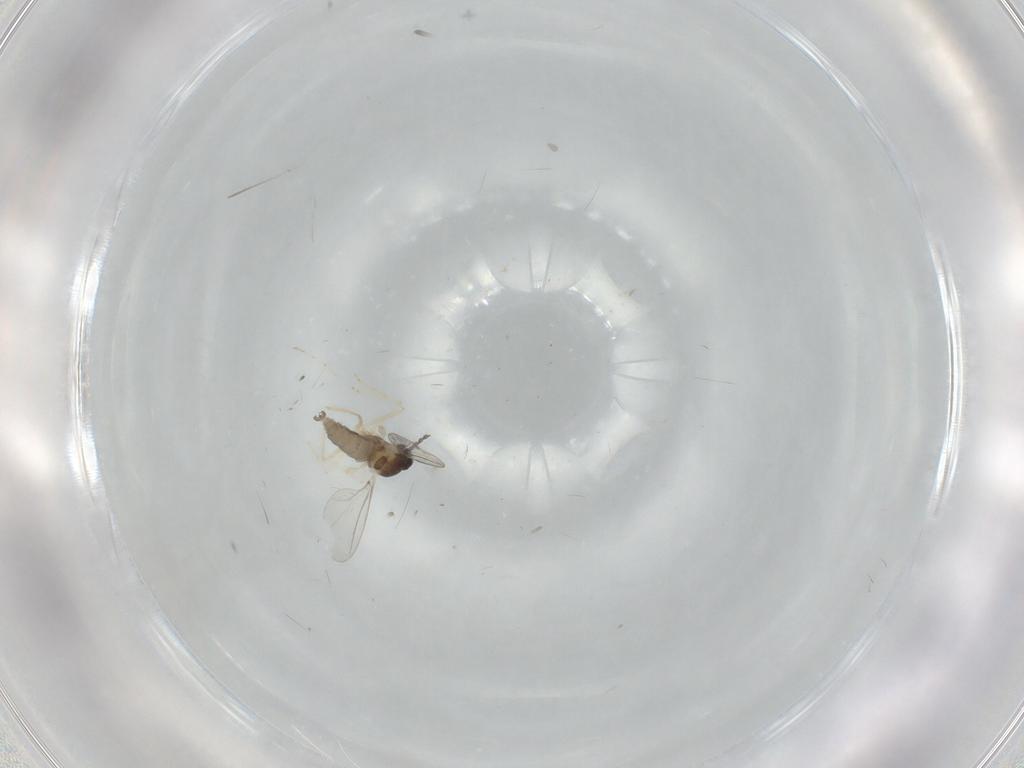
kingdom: Animalia
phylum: Arthropoda
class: Insecta
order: Diptera
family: Cecidomyiidae
